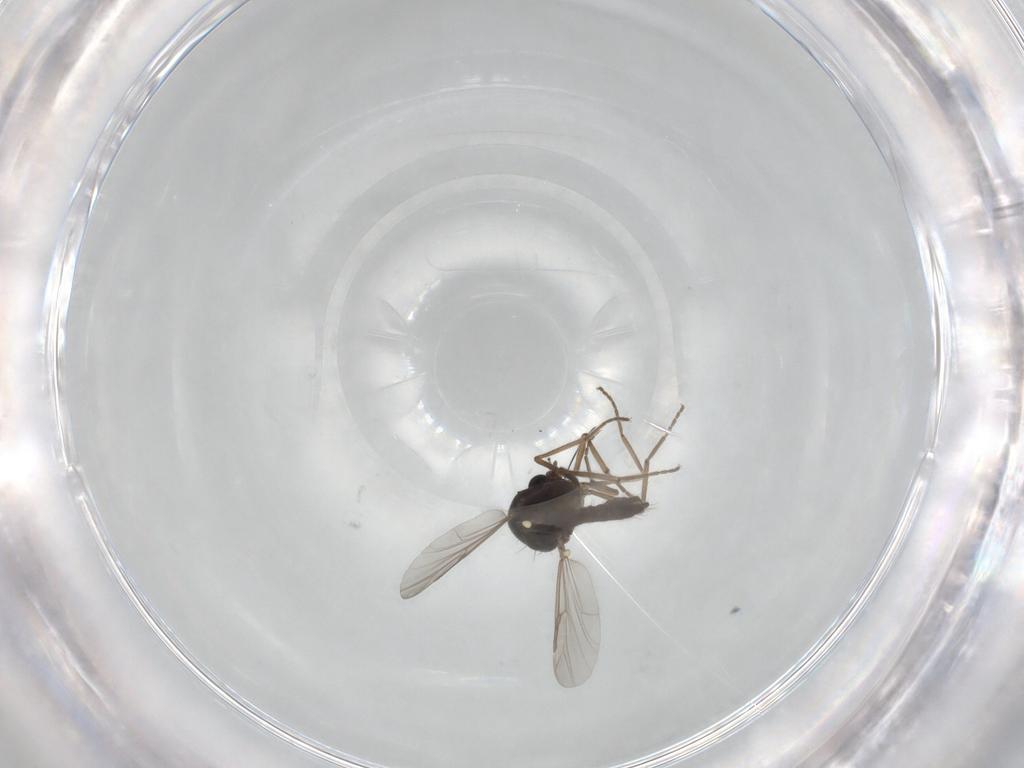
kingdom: Animalia
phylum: Arthropoda
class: Insecta
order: Diptera
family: Ceratopogonidae
